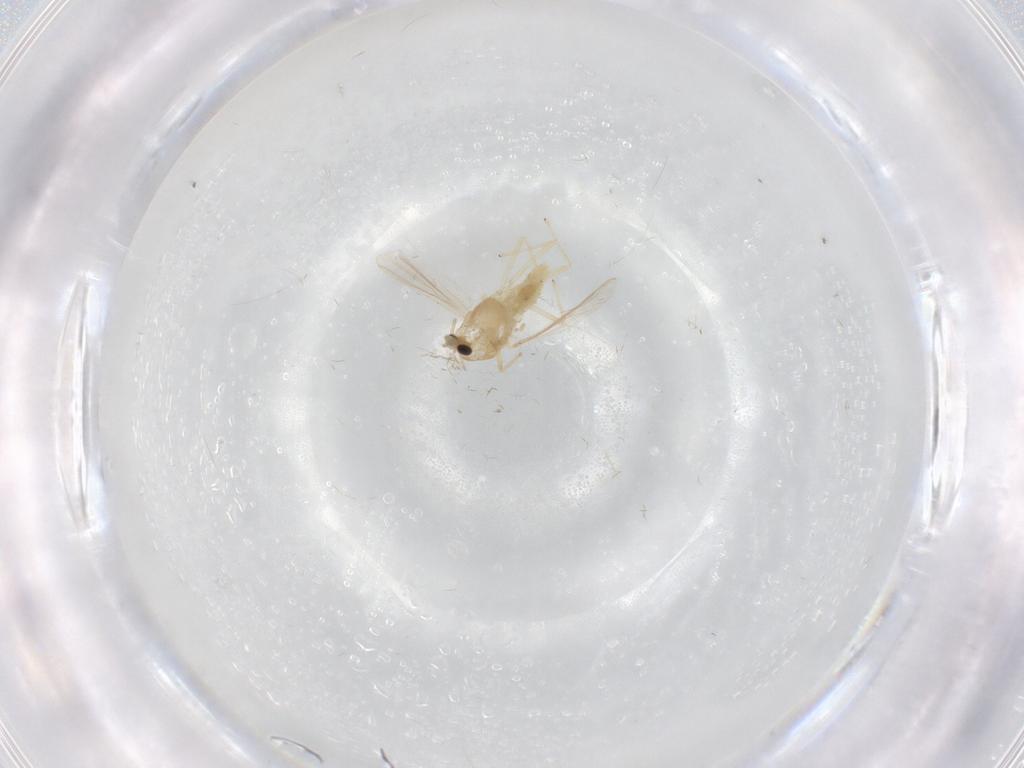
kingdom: Animalia
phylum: Arthropoda
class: Insecta
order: Diptera
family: Chironomidae
